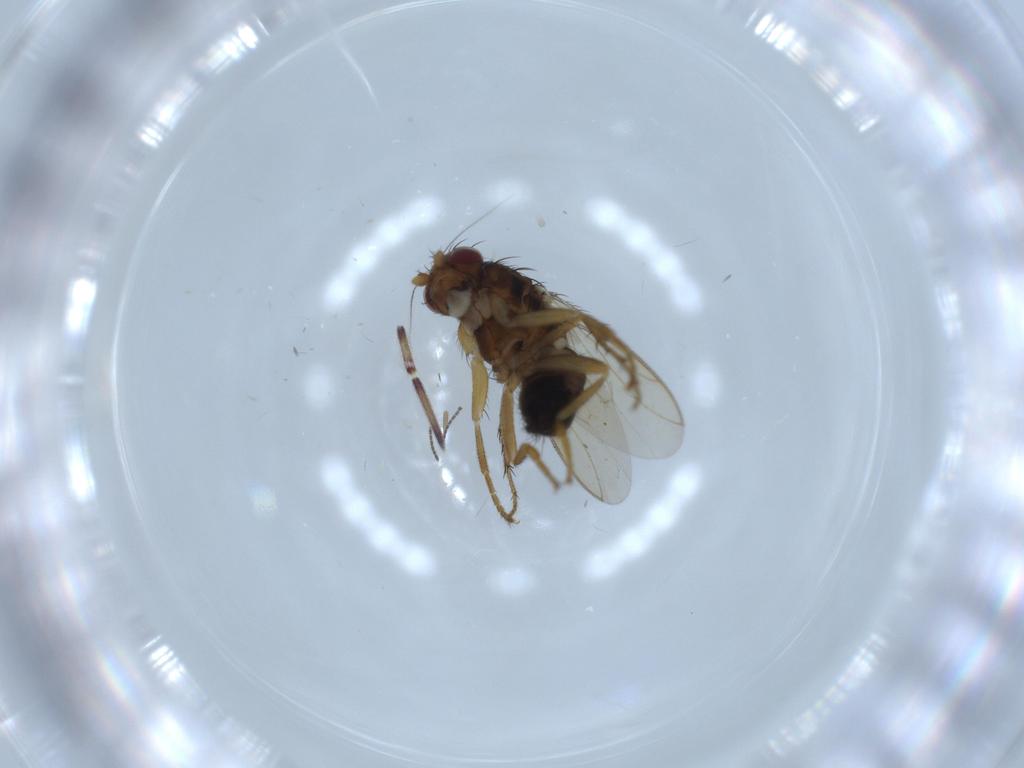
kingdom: Animalia
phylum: Arthropoda
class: Insecta
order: Diptera
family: Sphaeroceridae
